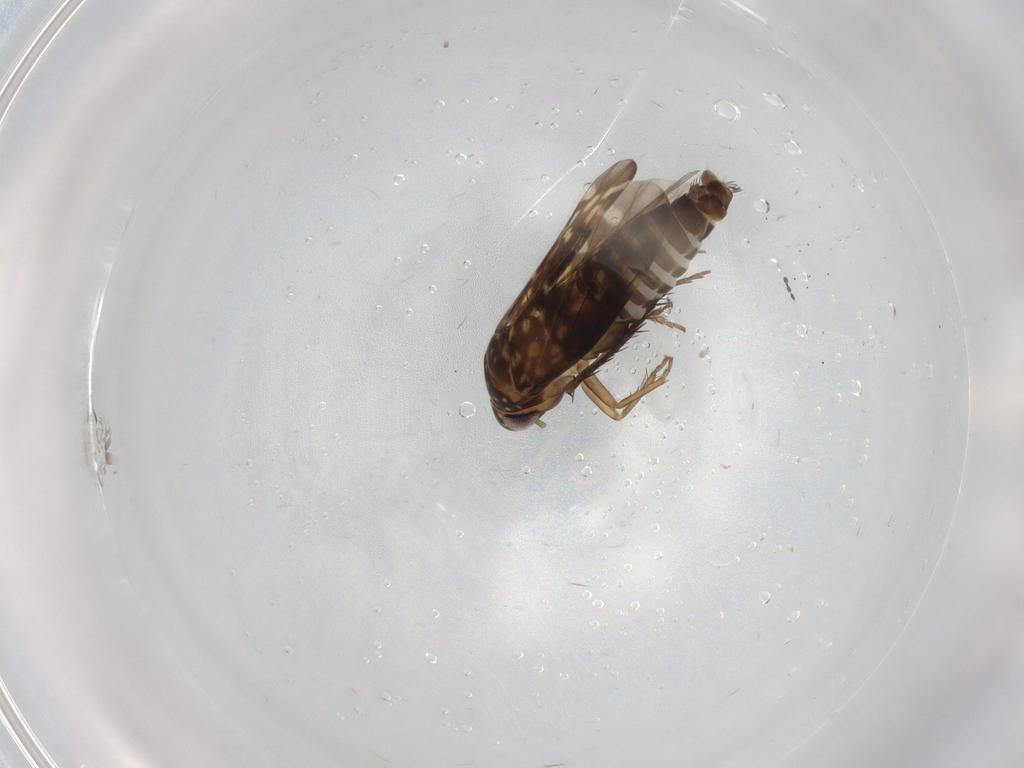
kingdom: Animalia
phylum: Arthropoda
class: Insecta
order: Hemiptera
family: Cicadellidae
